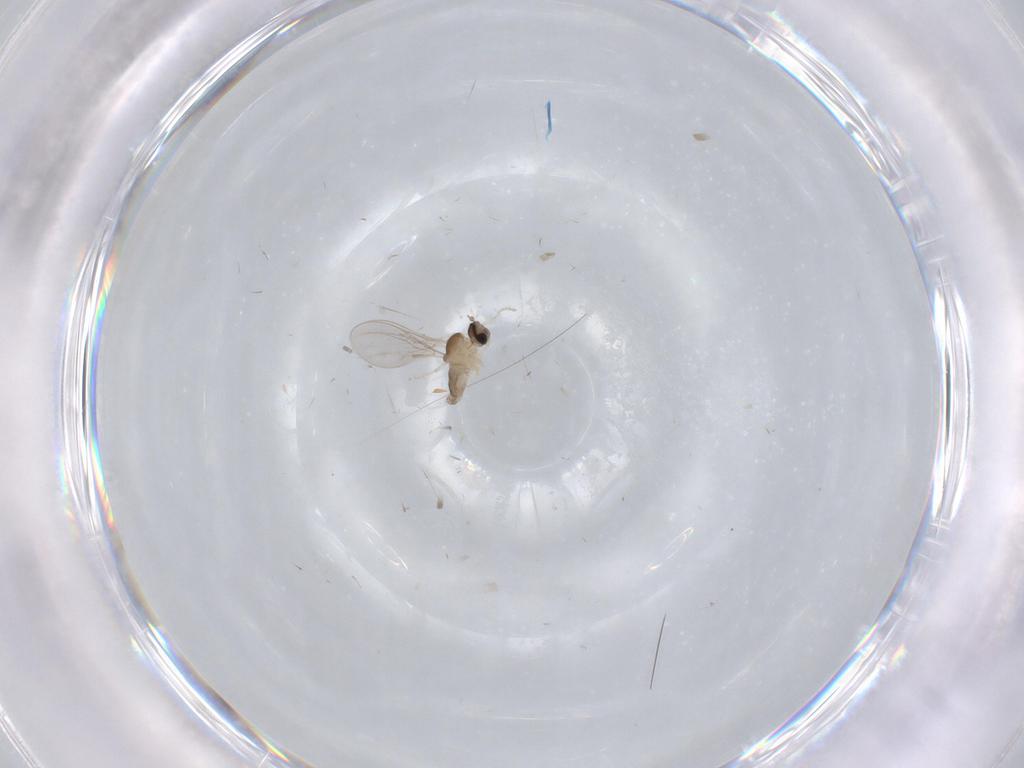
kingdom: Animalia
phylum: Arthropoda
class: Insecta
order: Diptera
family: Cecidomyiidae
